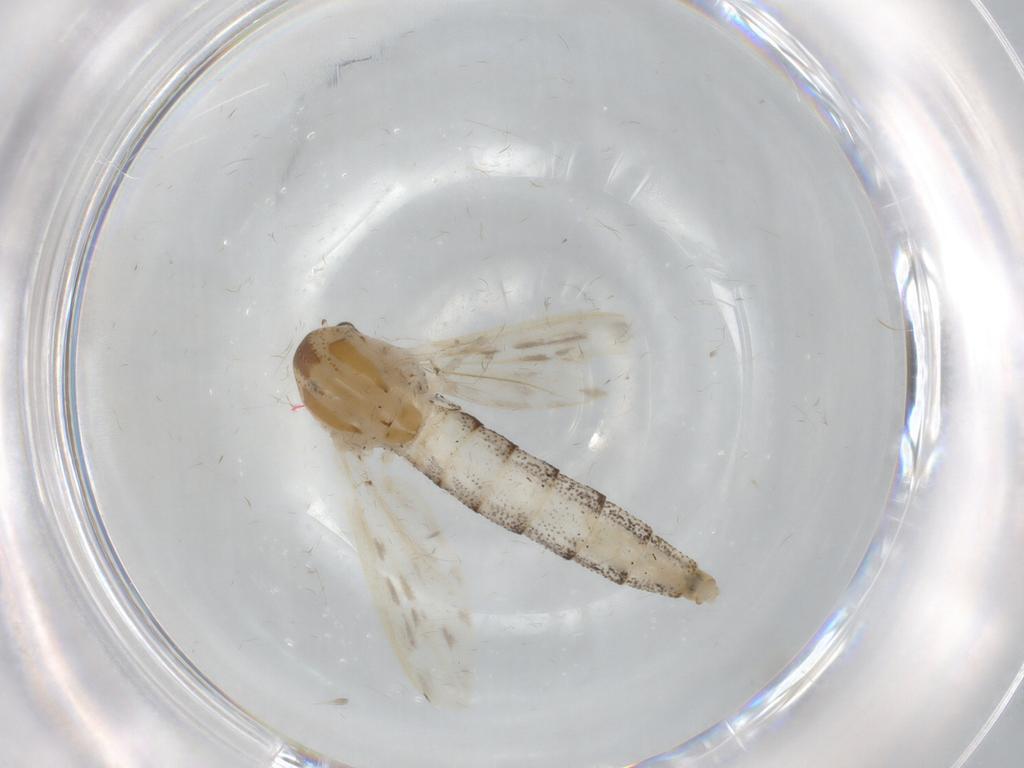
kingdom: Animalia
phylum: Arthropoda
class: Insecta
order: Diptera
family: Chaoboridae
